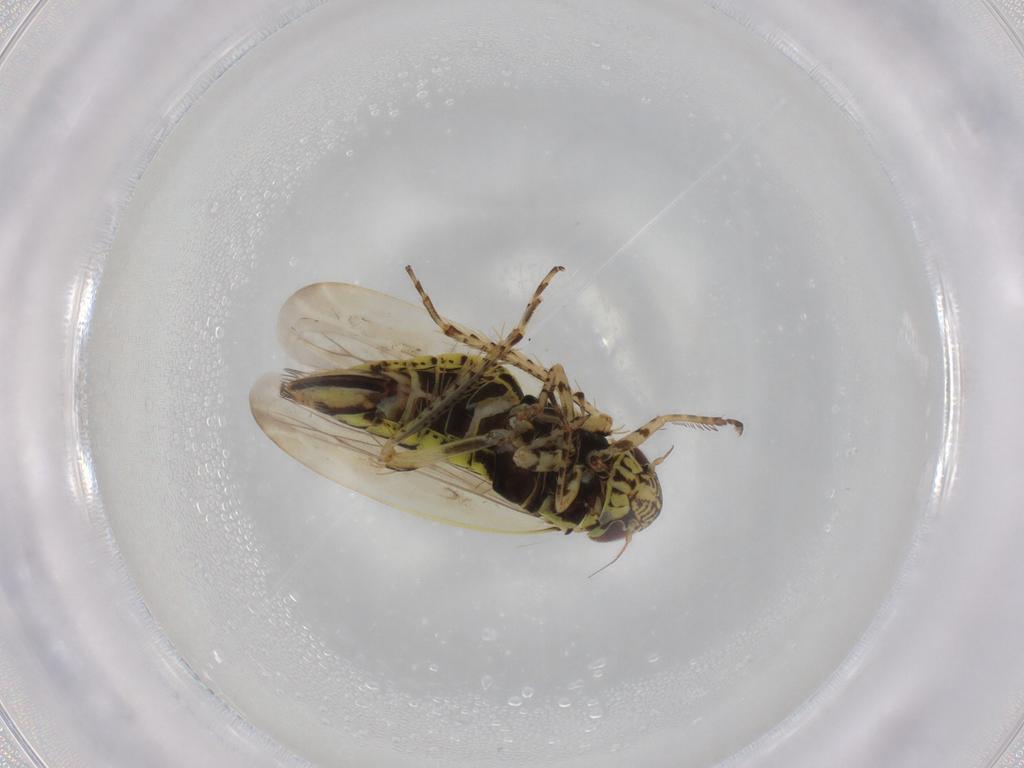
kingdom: Animalia
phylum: Arthropoda
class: Insecta
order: Hemiptera
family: Cicadellidae
